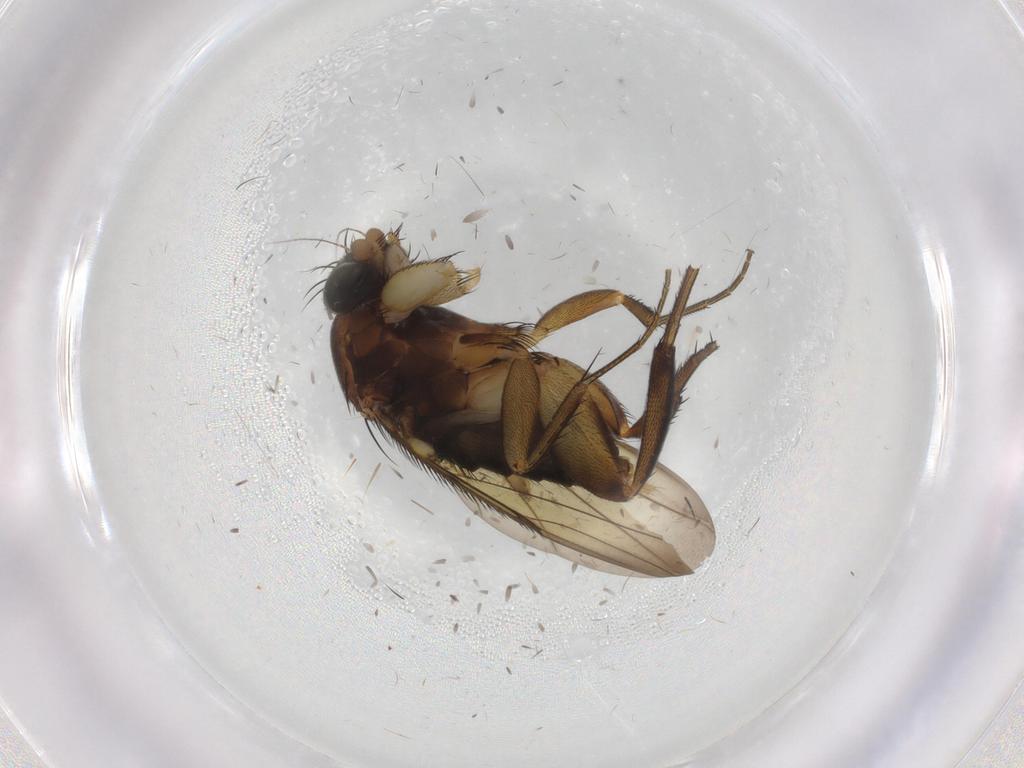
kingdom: Animalia
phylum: Arthropoda
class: Insecta
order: Diptera
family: Phoridae
